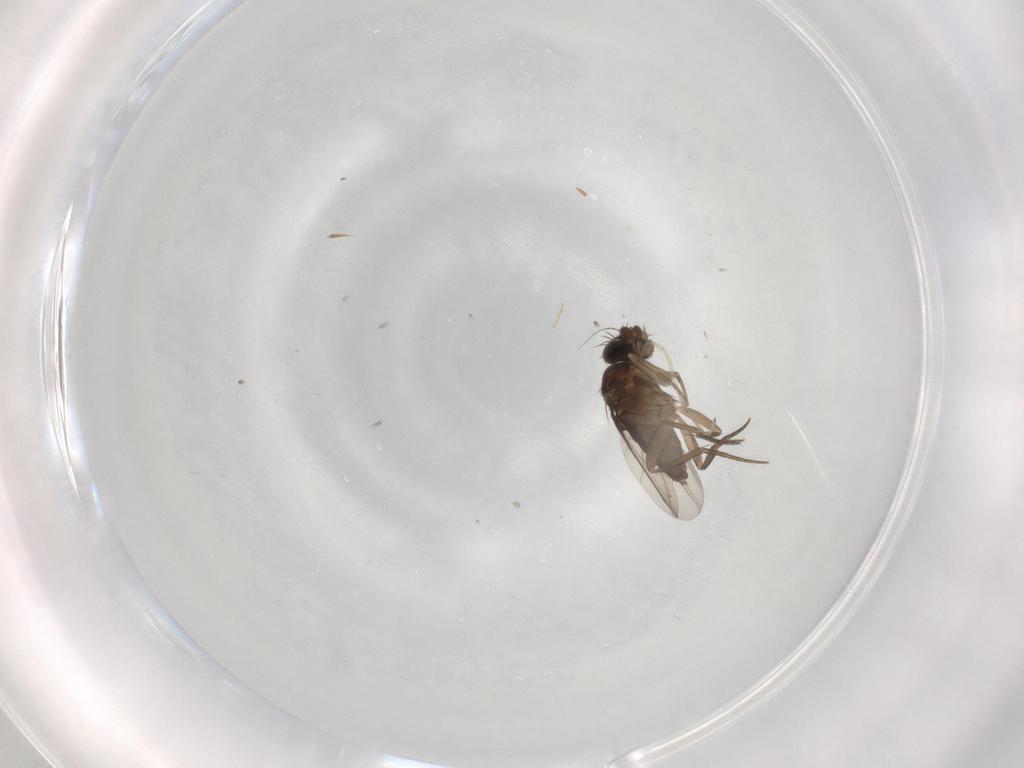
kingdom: Animalia
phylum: Arthropoda
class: Insecta
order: Diptera
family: Phoridae
